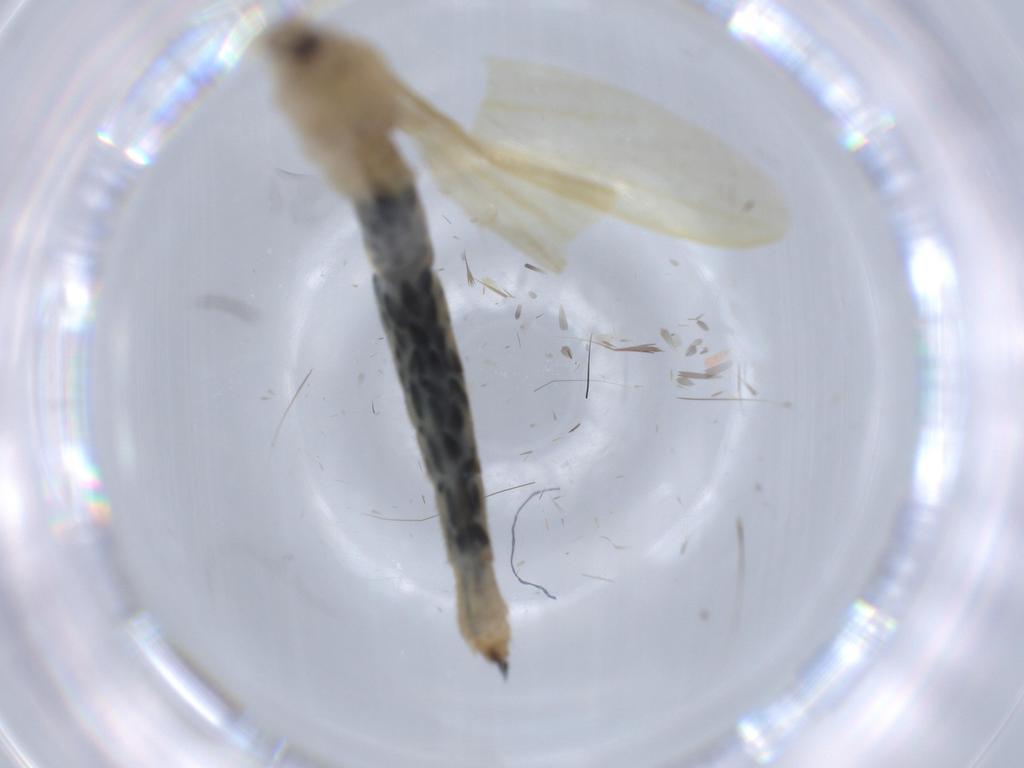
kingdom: Animalia
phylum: Arthropoda
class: Insecta
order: Diptera
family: Limoniidae
